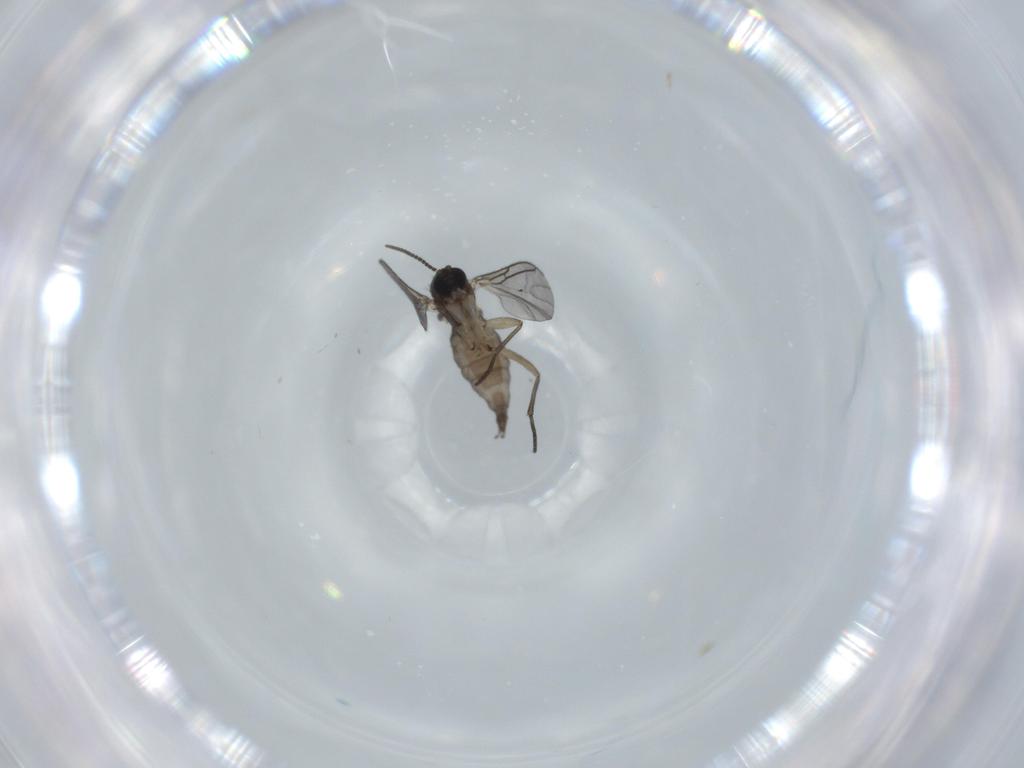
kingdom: Animalia
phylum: Arthropoda
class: Insecta
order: Diptera
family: Sciaridae
